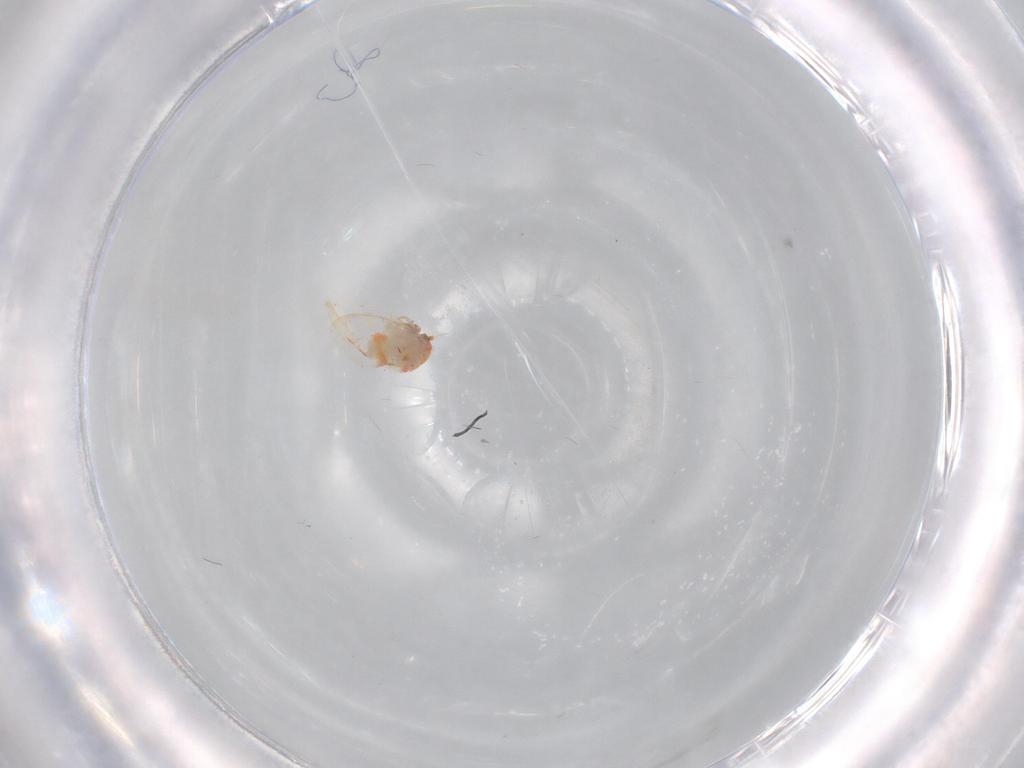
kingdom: Animalia
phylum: Arthropoda
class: Insecta
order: Hemiptera
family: Aleyrodidae
